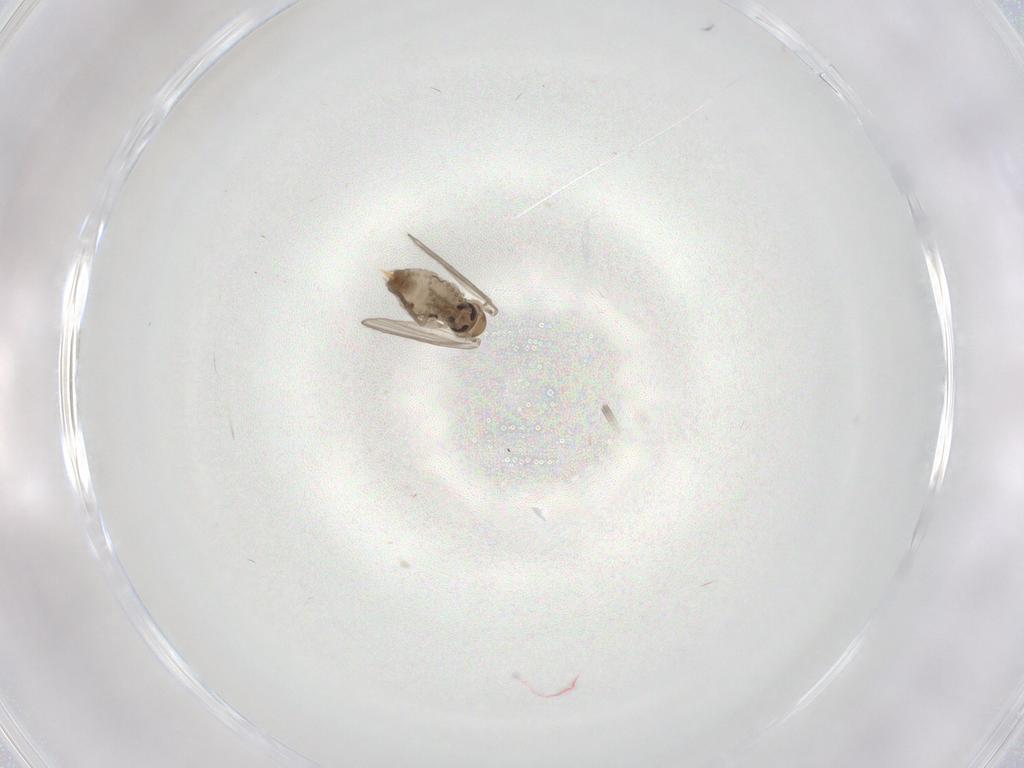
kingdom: Animalia
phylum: Arthropoda
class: Insecta
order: Diptera
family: Psychodidae
